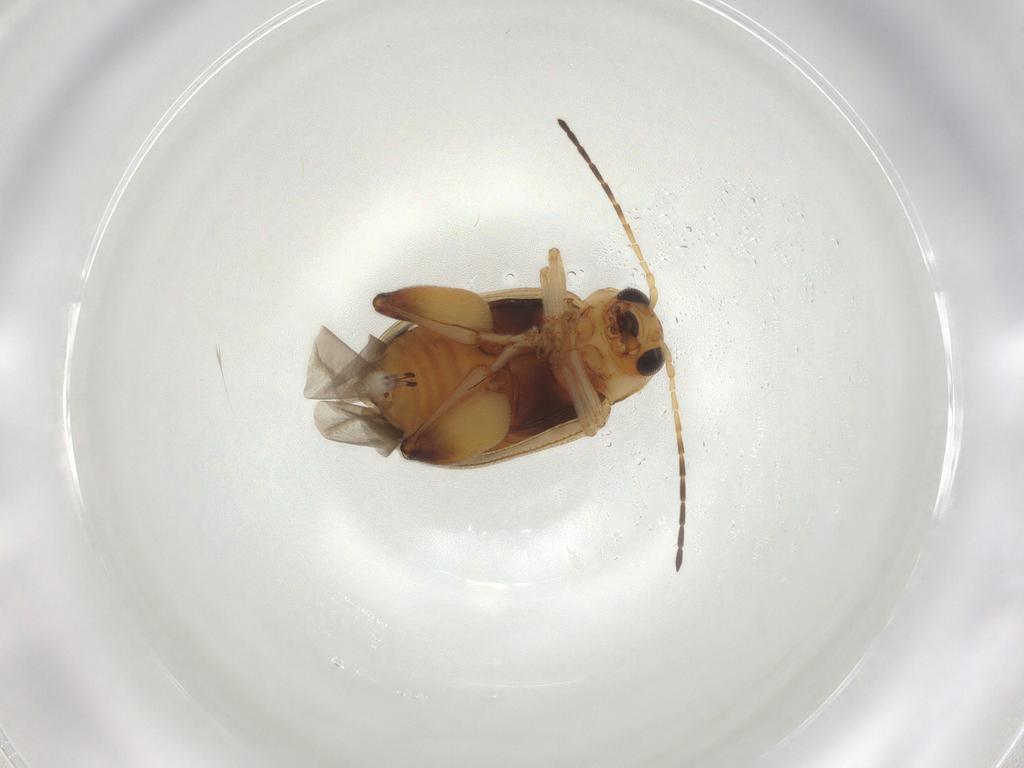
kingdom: Animalia
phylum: Arthropoda
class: Insecta
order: Coleoptera
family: Chrysomelidae
